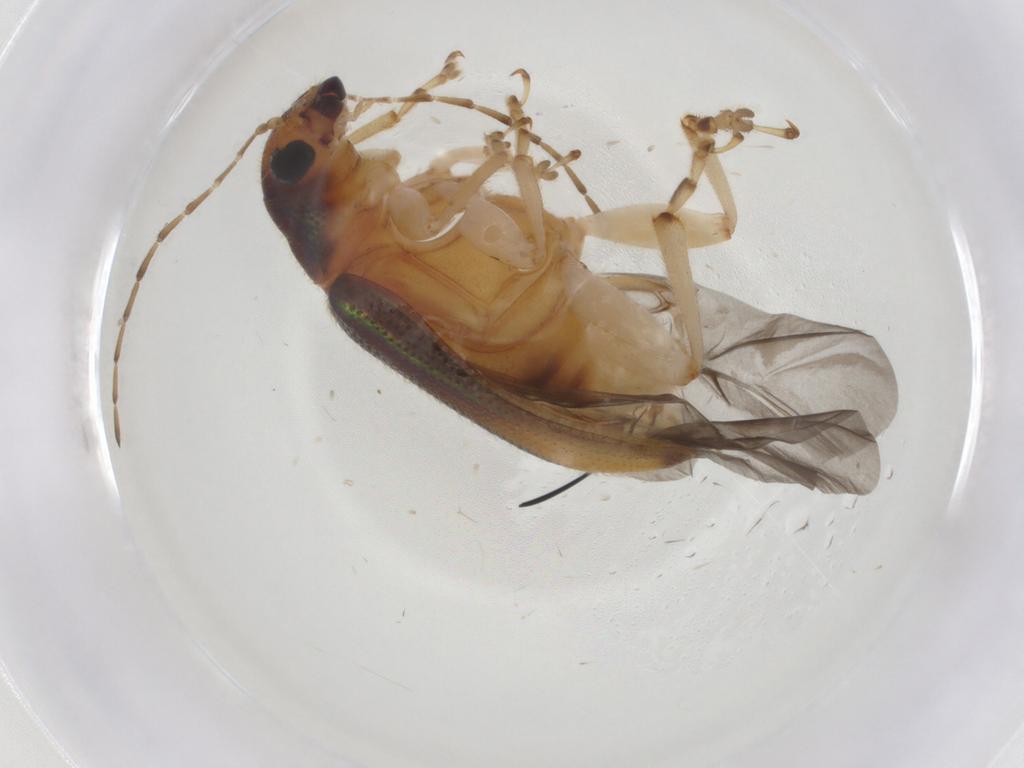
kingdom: Animalia
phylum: Arthropoda
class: Insecta
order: Coleoptera
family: Chrysomelidae
